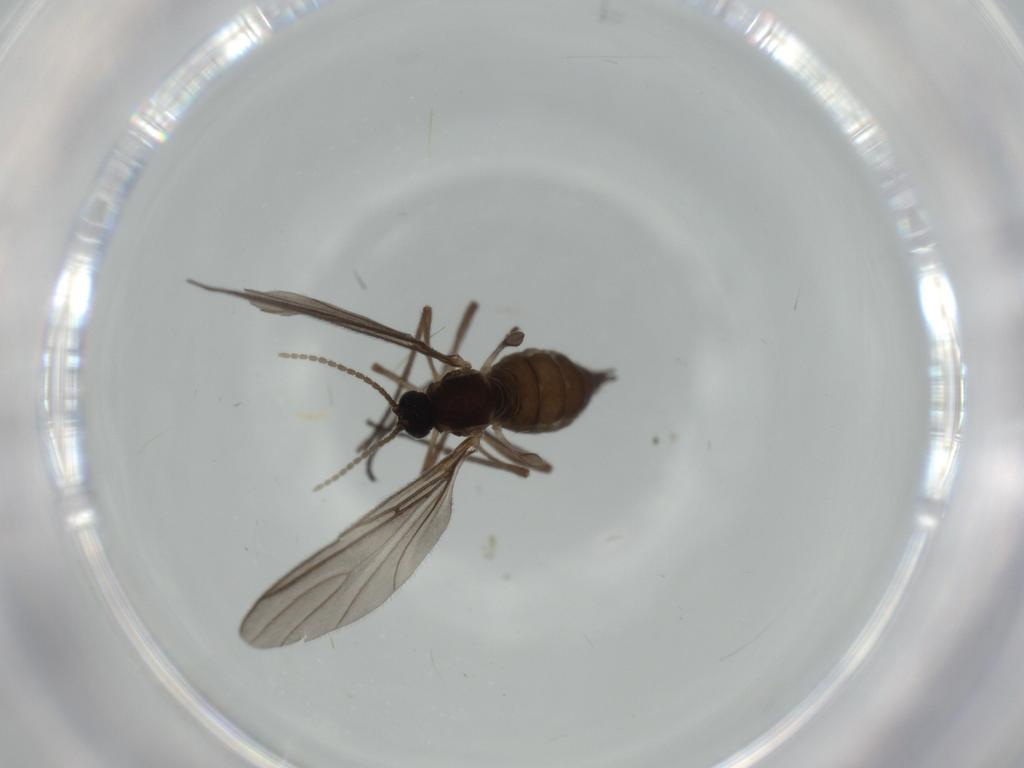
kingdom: Animalia
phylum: Arthropoda
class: Insecta
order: Diptera
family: Sciaridae
